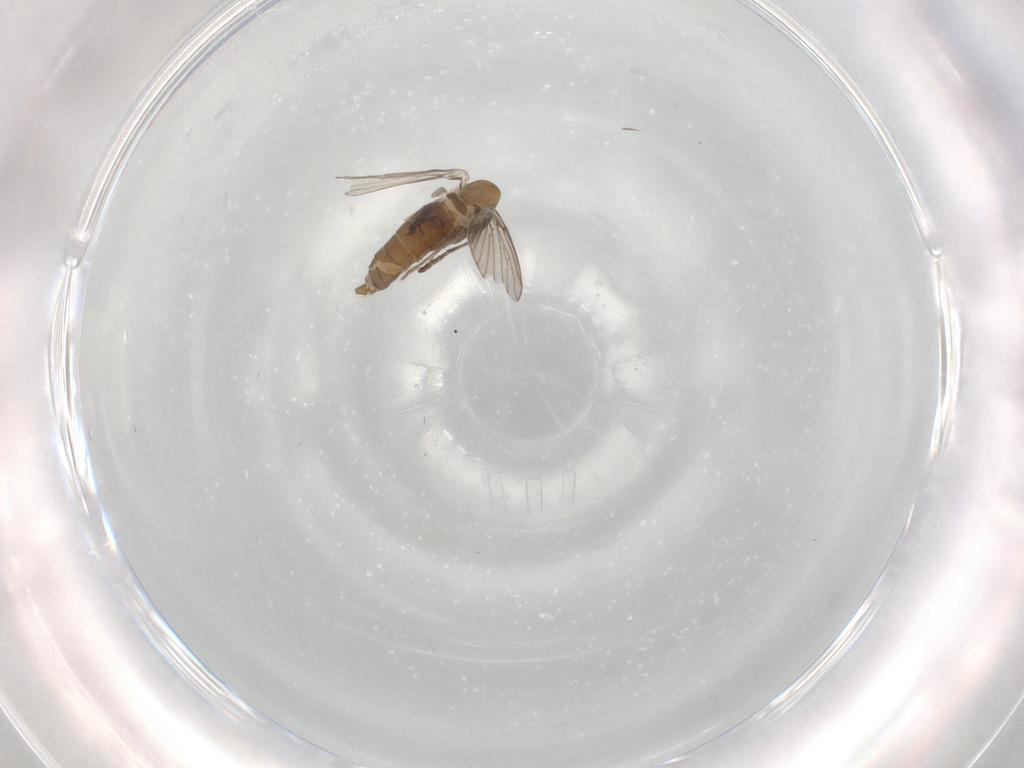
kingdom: Animalia
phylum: Arthropoda
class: Insecta
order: Diptera
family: Psychodidae
